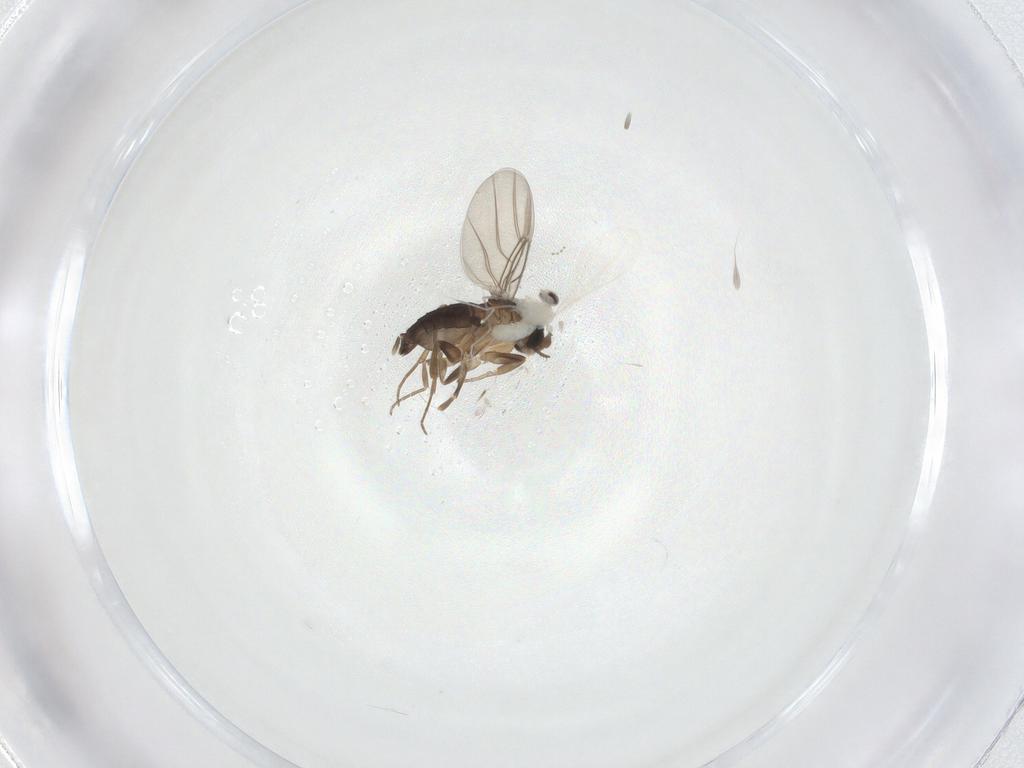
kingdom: Animalia
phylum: Arthropoda
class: Insecta
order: Diptera
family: Phoridae
